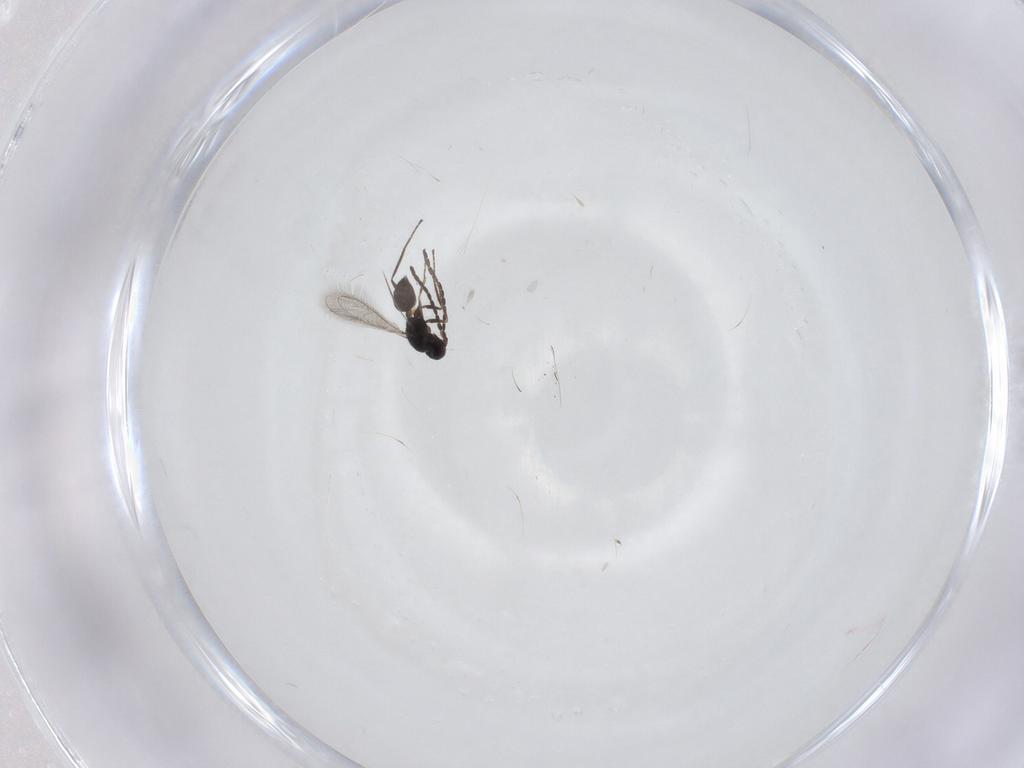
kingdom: Animalia
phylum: Arthropoda
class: Insecta
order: Hymenoptera
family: Mymaridae
